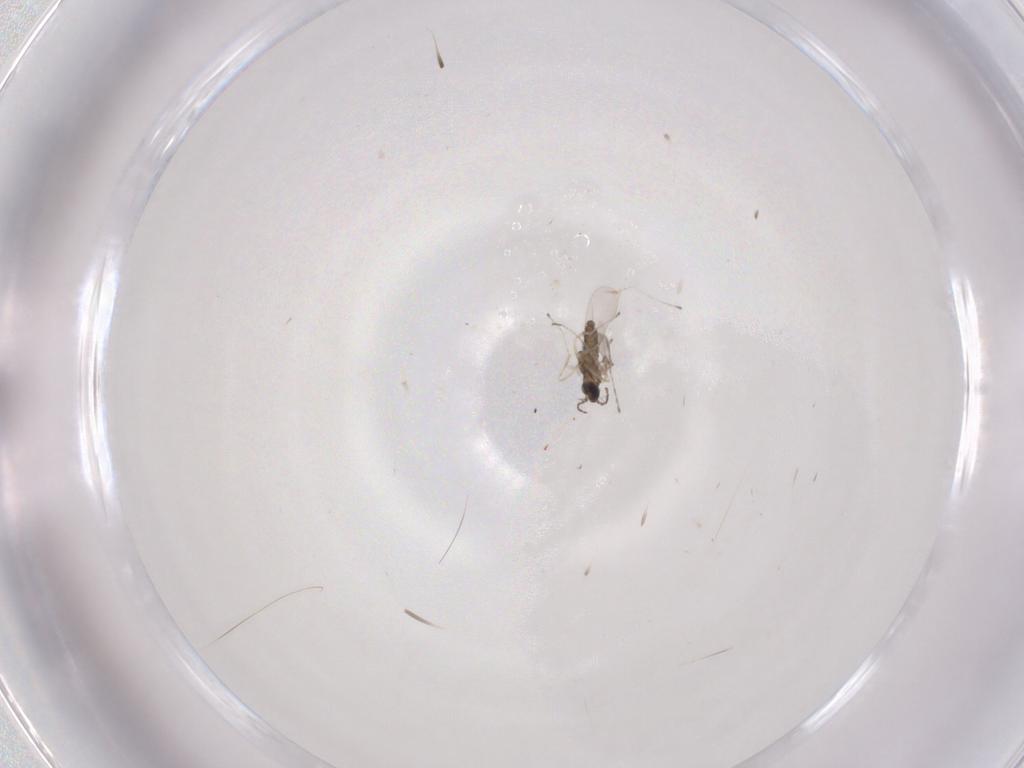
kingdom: Animalia
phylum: Arthropoda
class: Insecta
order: Diptera
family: Cecidomyiidae
